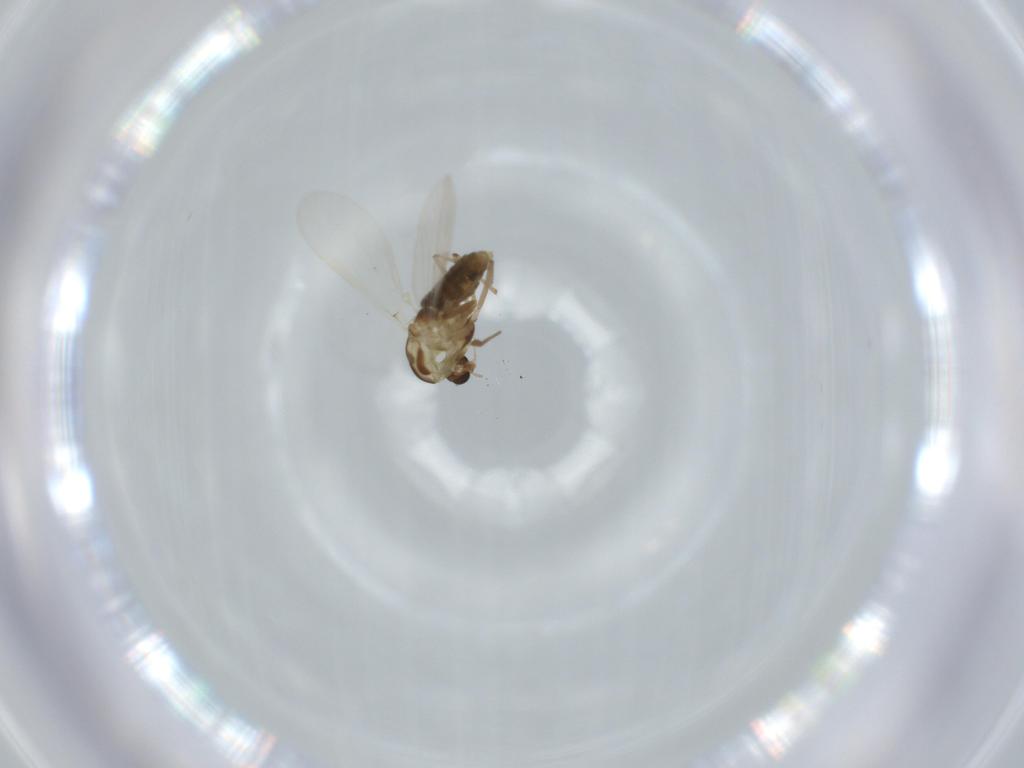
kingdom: Animalia
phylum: Arthropoda
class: Insecta
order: Diptera
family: Chironomidae
